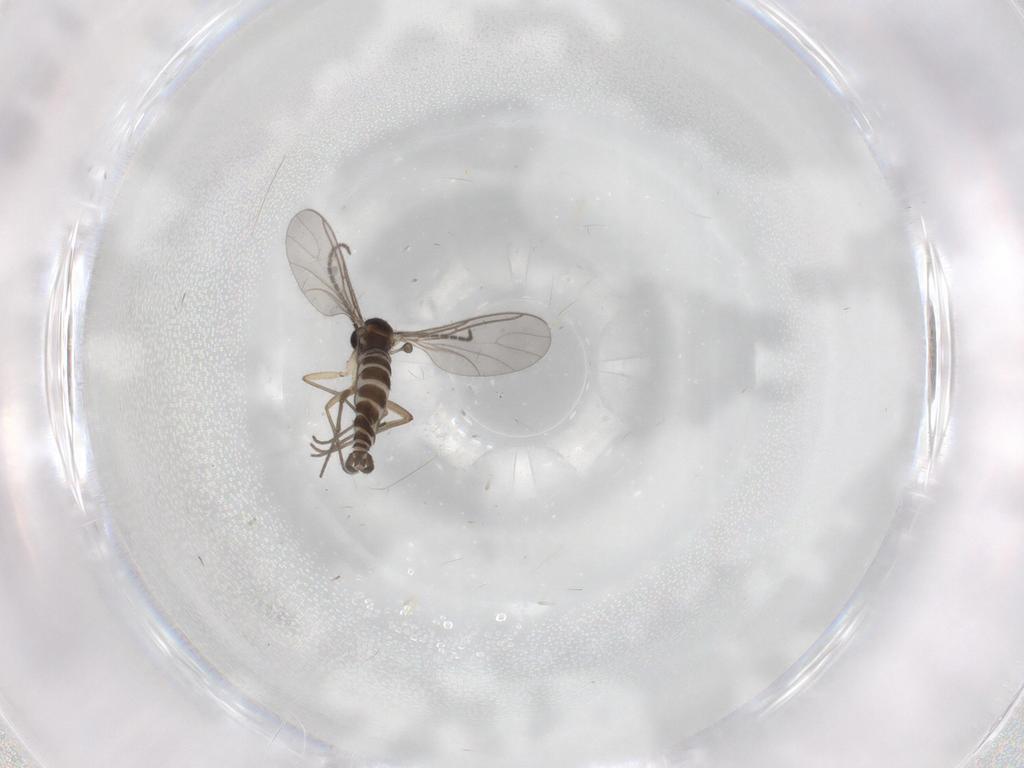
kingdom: Animalia
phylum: Arthropoda
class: Insecta
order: Diptera
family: Sciaridae
